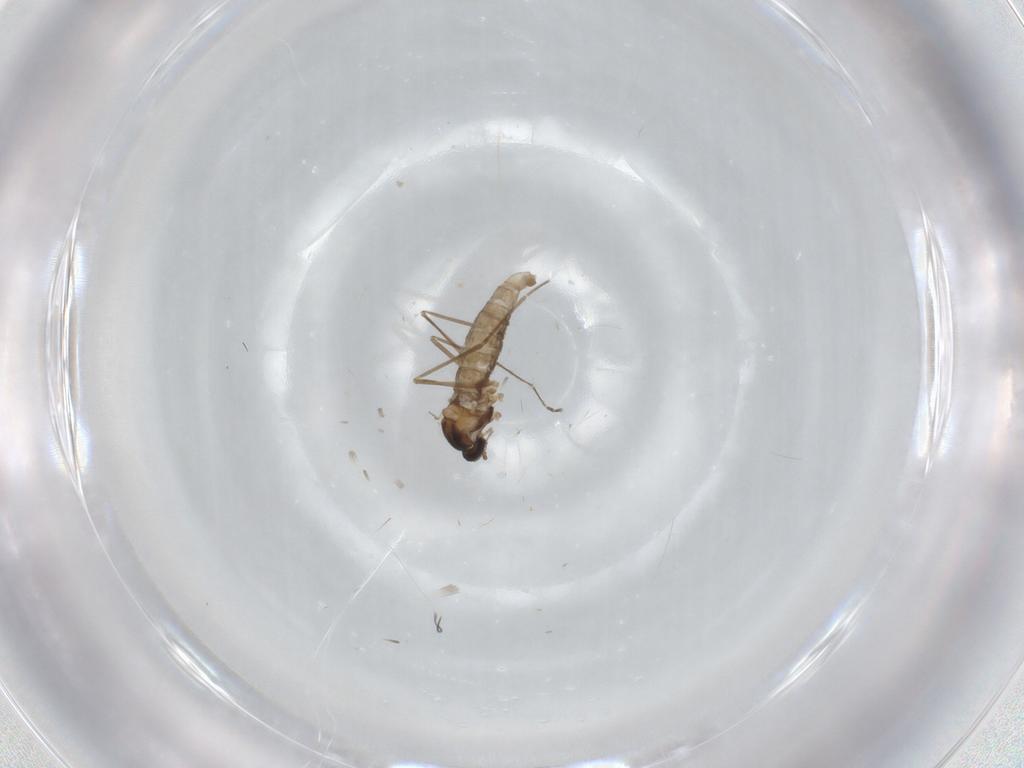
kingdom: Animalia
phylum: Arthropoda
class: Insecta
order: Diptera
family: Cecidomyiidae
